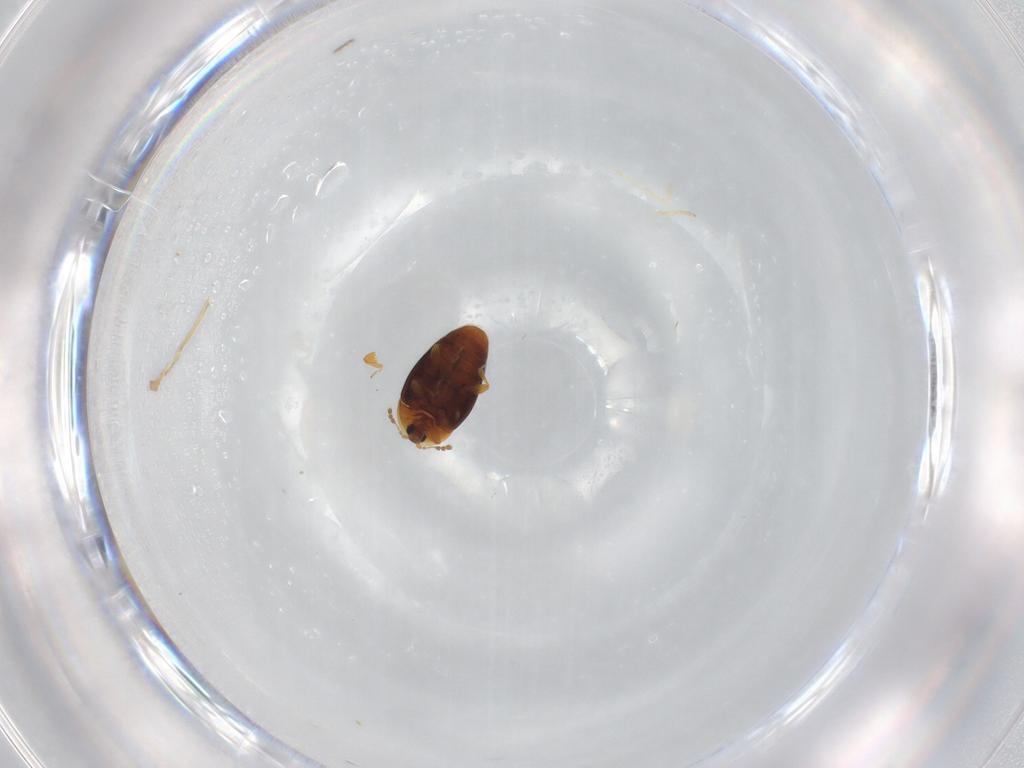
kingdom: Animalia
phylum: Arthropoda
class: Insecta
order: Coleoptera
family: Corylophidae
